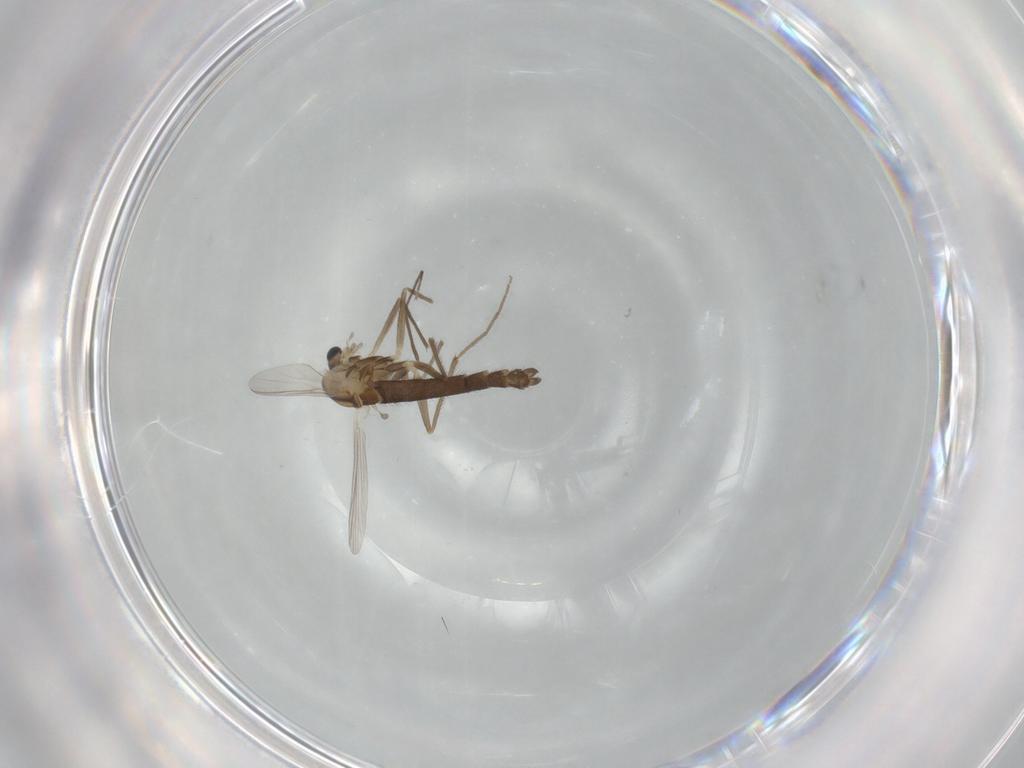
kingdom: Animalia
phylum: Arthropoda
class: Insecta
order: Diptera
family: Chironomidae
